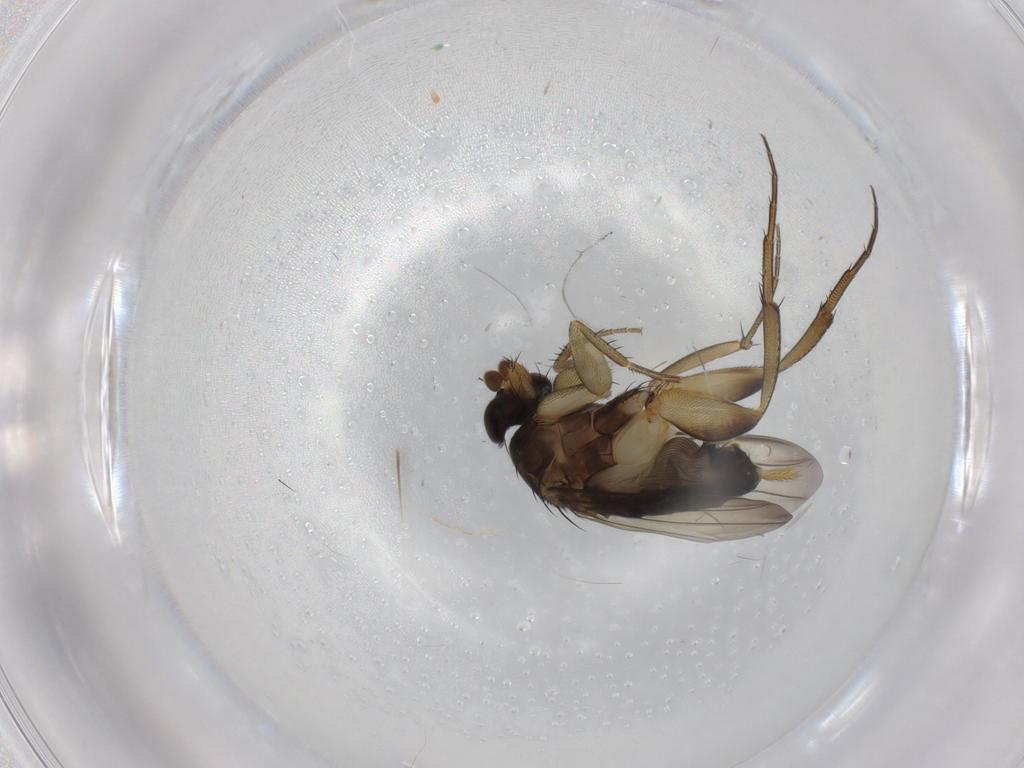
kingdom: Animalia
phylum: Arthropoda
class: Insecta
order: Diptera
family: Phoridae
